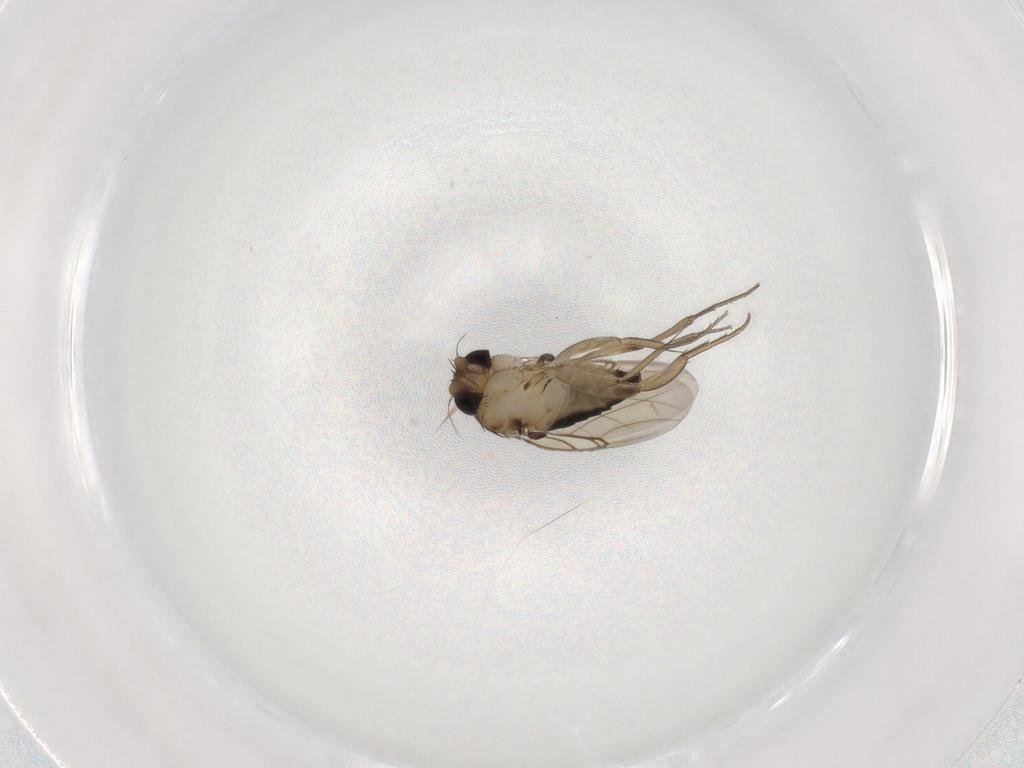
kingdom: Animalia
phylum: Arthropoda
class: Insecta
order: Diptera
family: Phoridae
